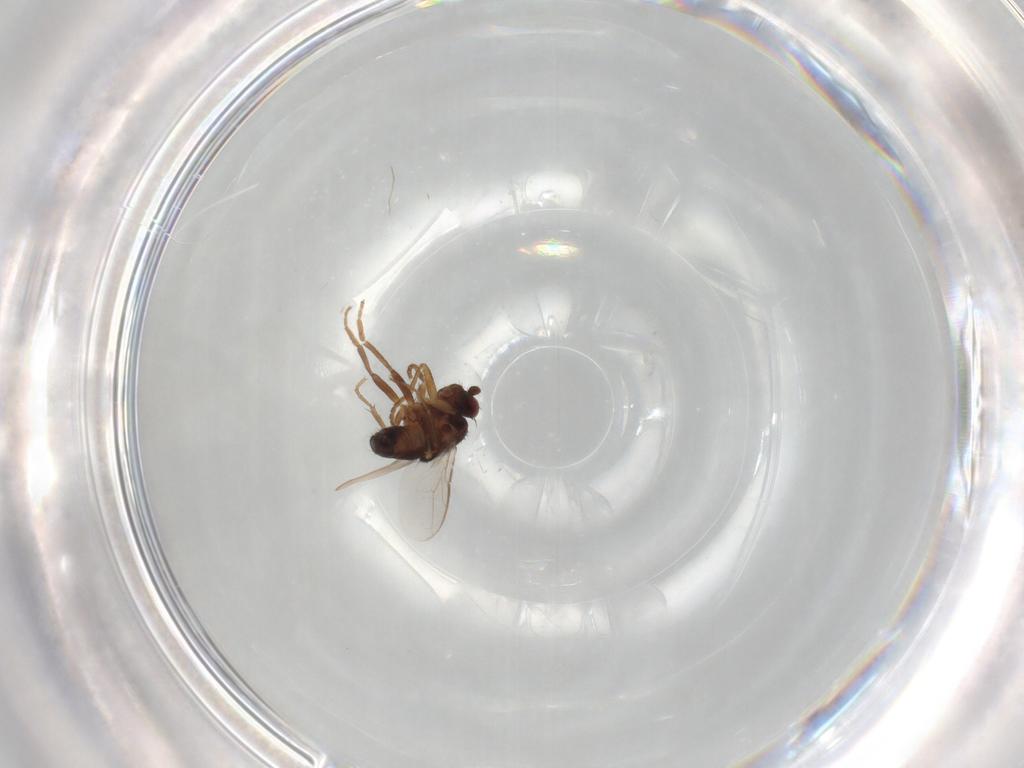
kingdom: Animalia
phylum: Arthropoda
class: Insecta
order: Diptera
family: Sphaeroceridae
